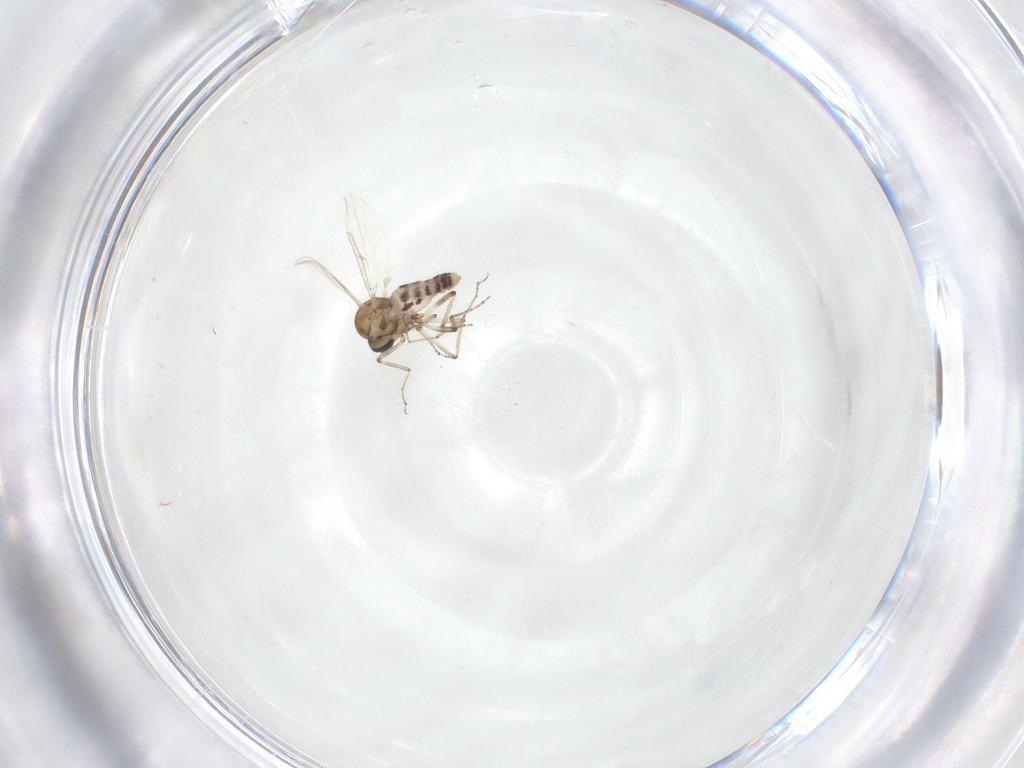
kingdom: Animalia
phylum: Arthropoda
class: Insecta
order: Diptera
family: Ceratopogonidae
